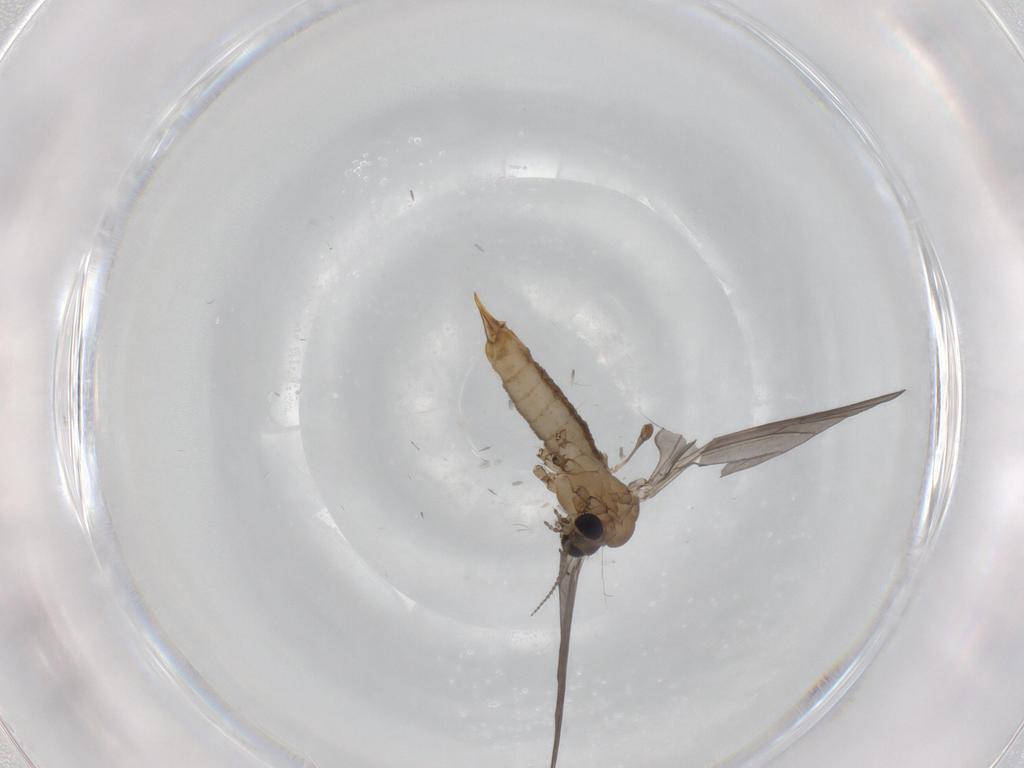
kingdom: Animalia
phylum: Arthropoda
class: Insecta
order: Diptera
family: Limoniidae
